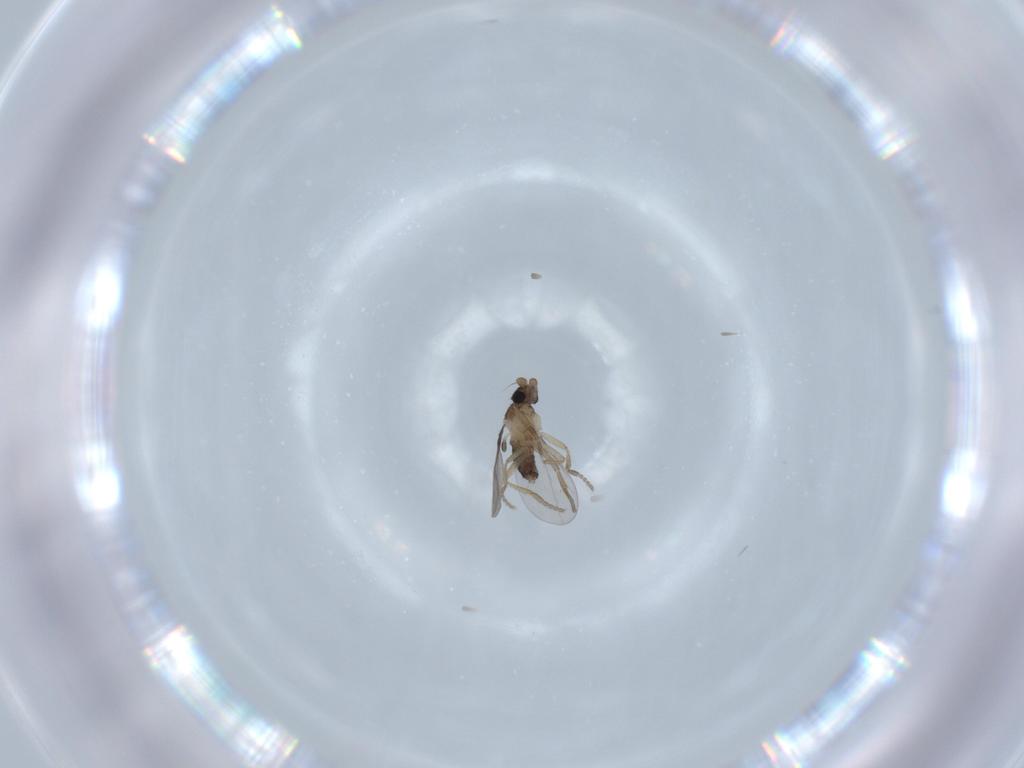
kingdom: Animalia
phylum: Arthropoda
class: Insecta
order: Diptera
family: Phoridae
